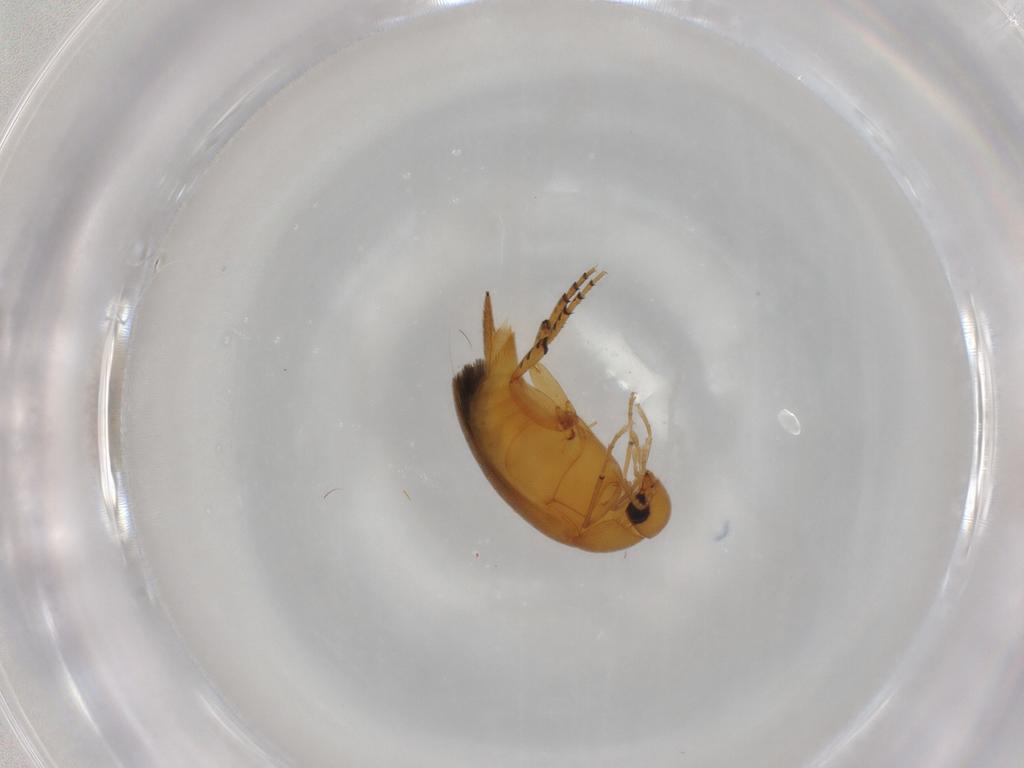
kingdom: Animalia
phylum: Arthropoda
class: Insecta
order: Coleoptera
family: Mordellidae
